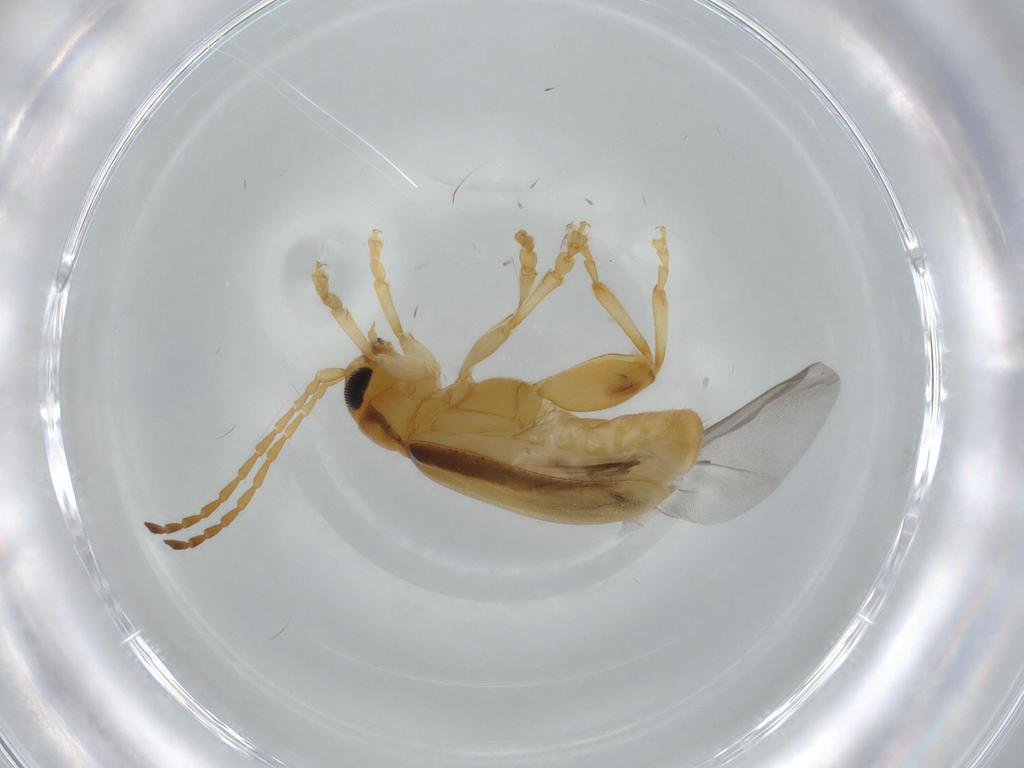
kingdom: Animalia
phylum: Arthropoda
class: Insecta
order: Coleoptera
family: Chrysomelidae
